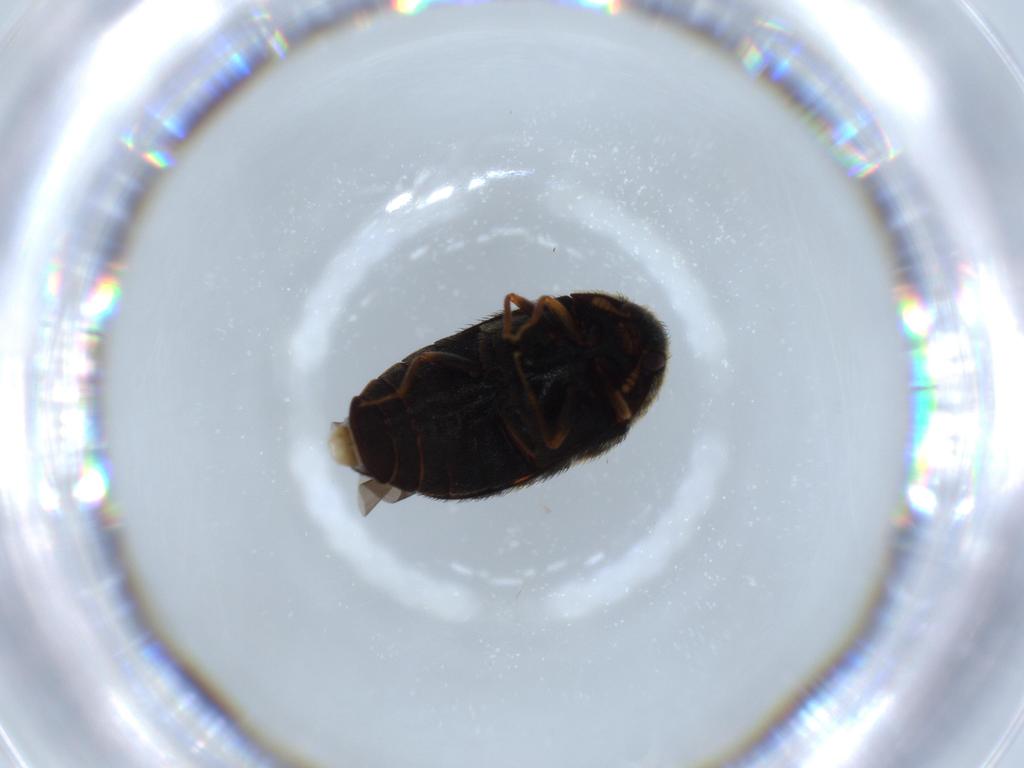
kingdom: Animalia
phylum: Arthropoda
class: Insecta
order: Coleoptera
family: Dermestidae
